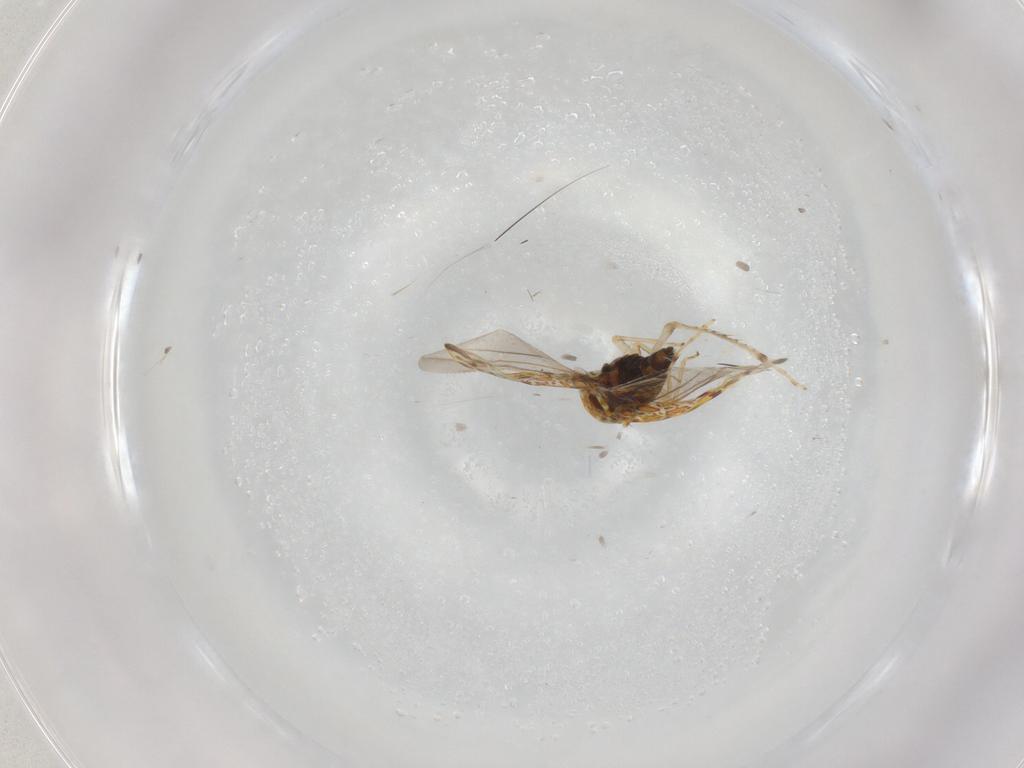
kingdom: Animalia
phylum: Arthropoda
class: Insecta
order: Hemiptera
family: Cicadellidae
